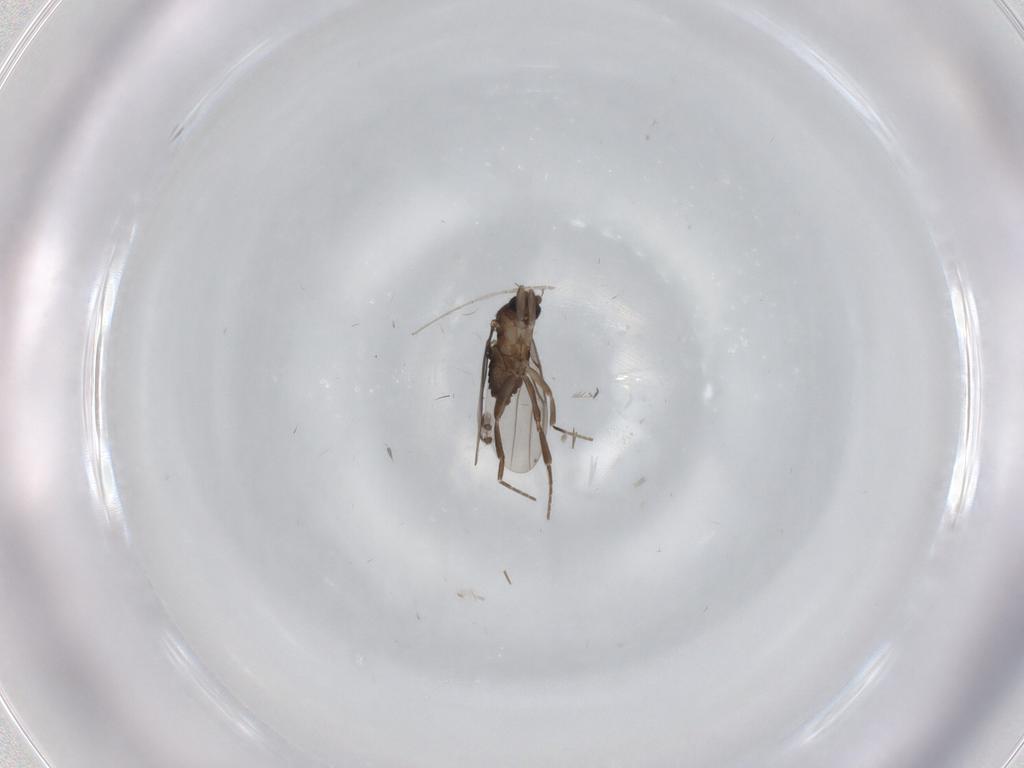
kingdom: Animalia
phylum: Arthropoda
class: Insecta
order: Diptera
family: Phoridae
